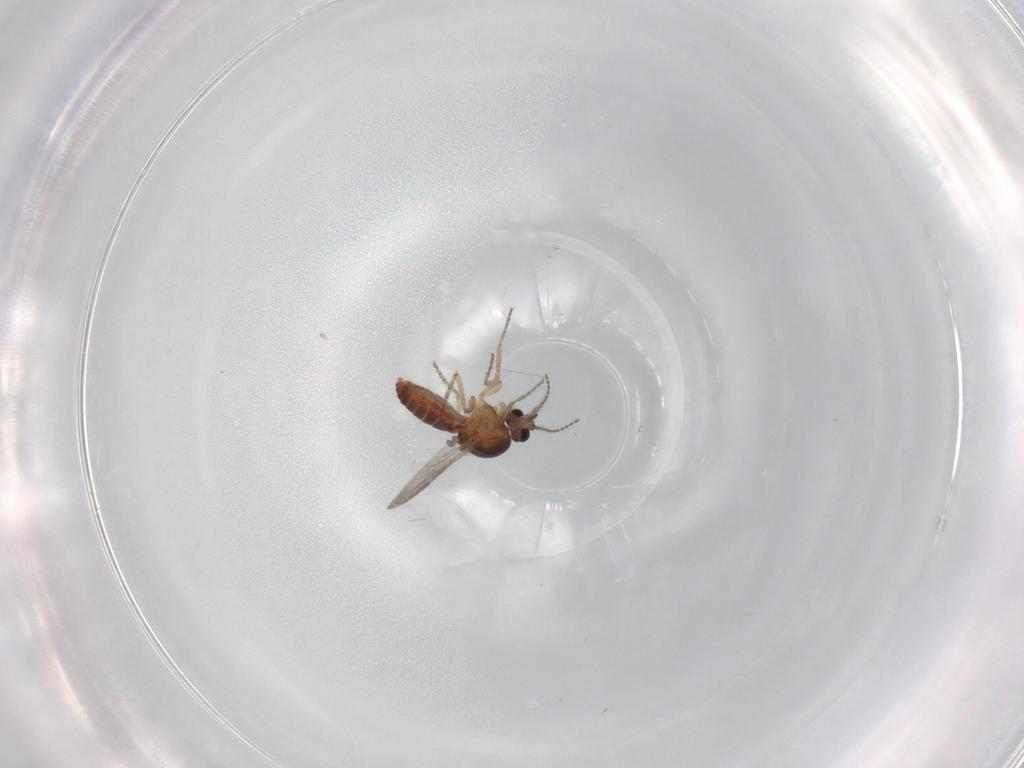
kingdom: Animalia
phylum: Arthropoda
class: Insecta
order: Diptera
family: Ceratopogonidae
